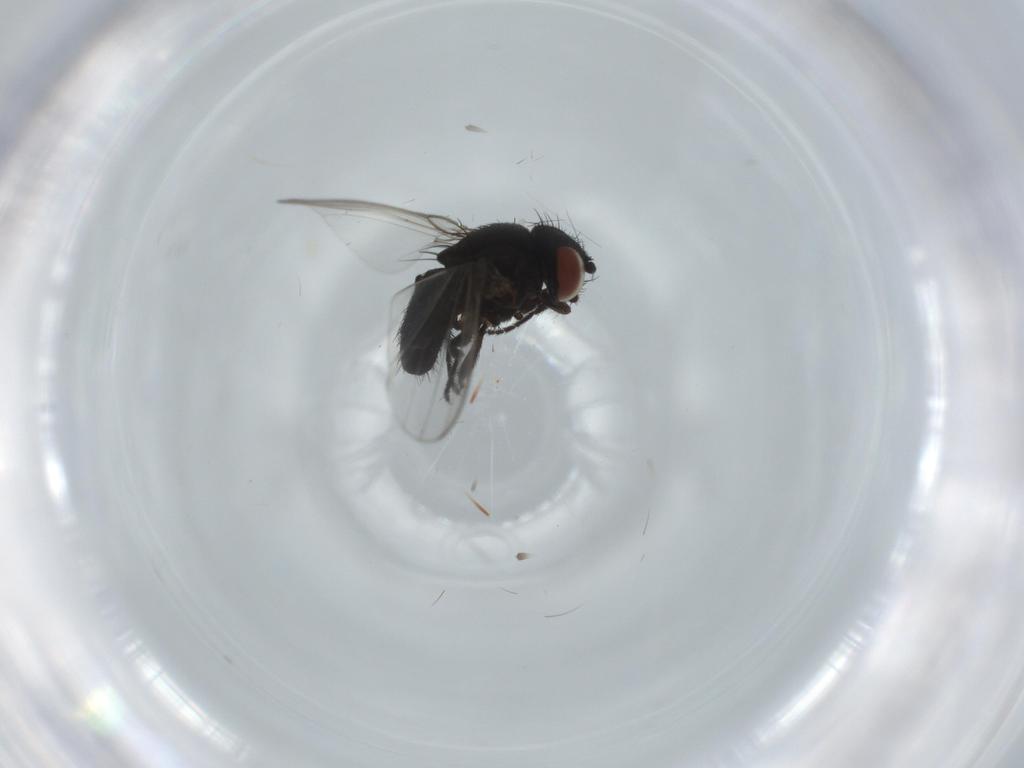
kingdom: Animalia
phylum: Arthropoda
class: Insecta
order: Diptera
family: Milichiidae
